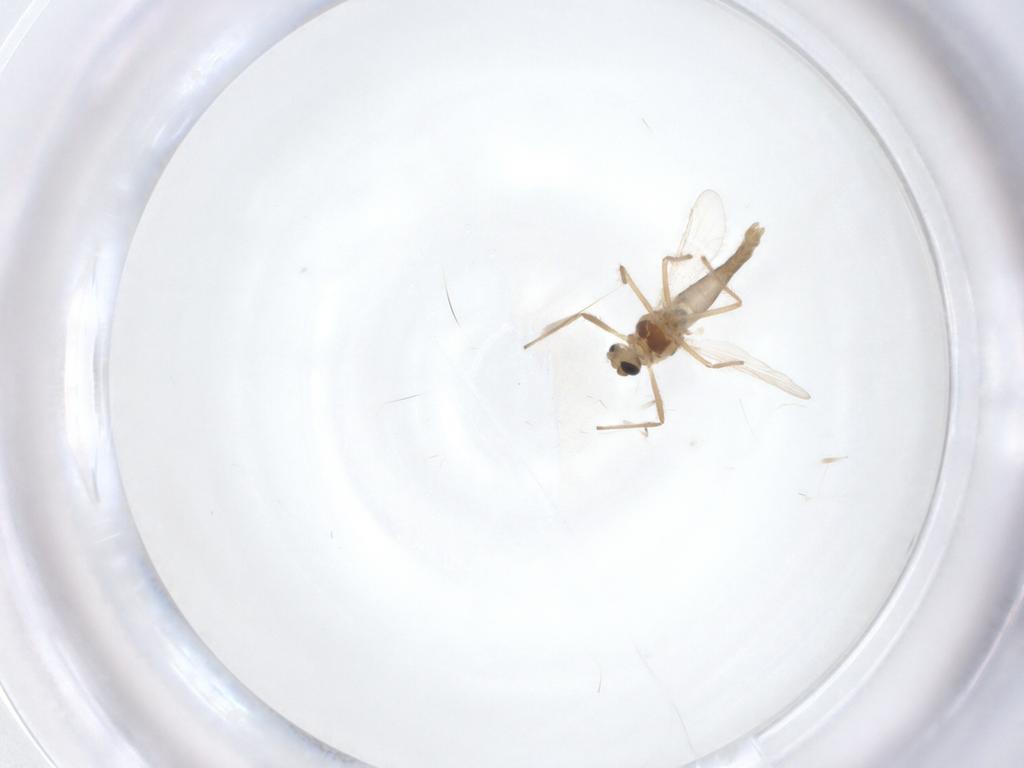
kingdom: Animalia
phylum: Arthropoda
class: Insecta
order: Diptera
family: Chironomidae
